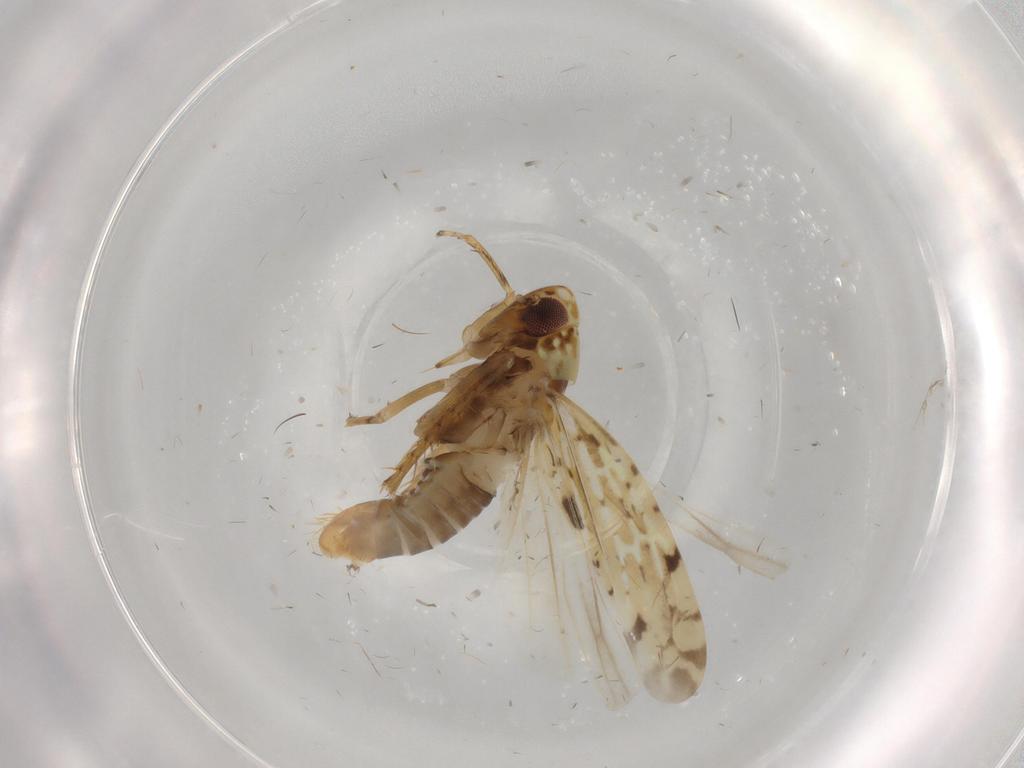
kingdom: Animalia
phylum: Arthropoda
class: Insecta
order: Hemiptera
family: Cicadellidae
